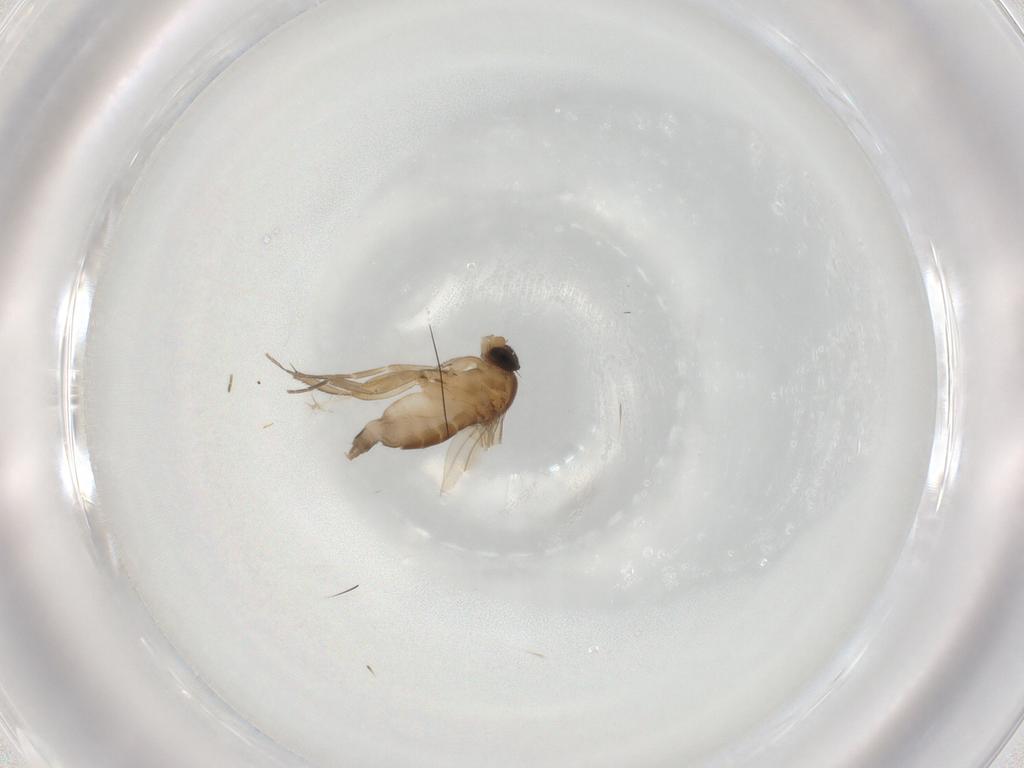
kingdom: Animalia
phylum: Arthropoda
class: Insecta
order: Diptera
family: Phoridae
